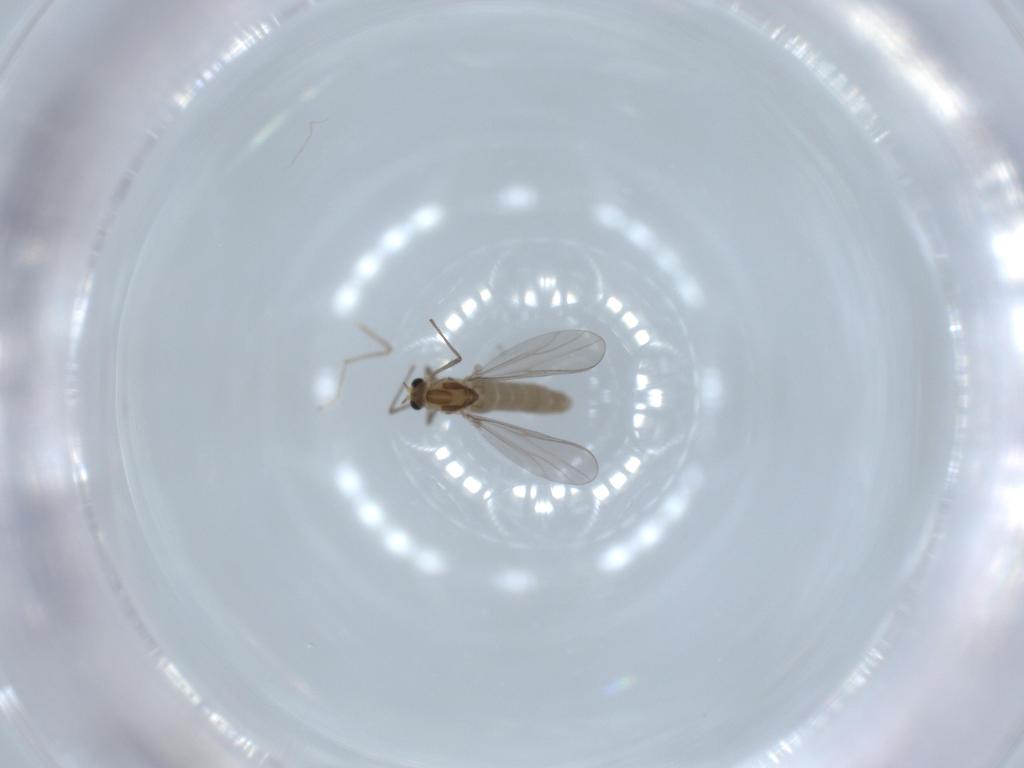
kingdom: Animalia
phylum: Arthropoda
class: Insecta
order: Diptera
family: Chironomidae
